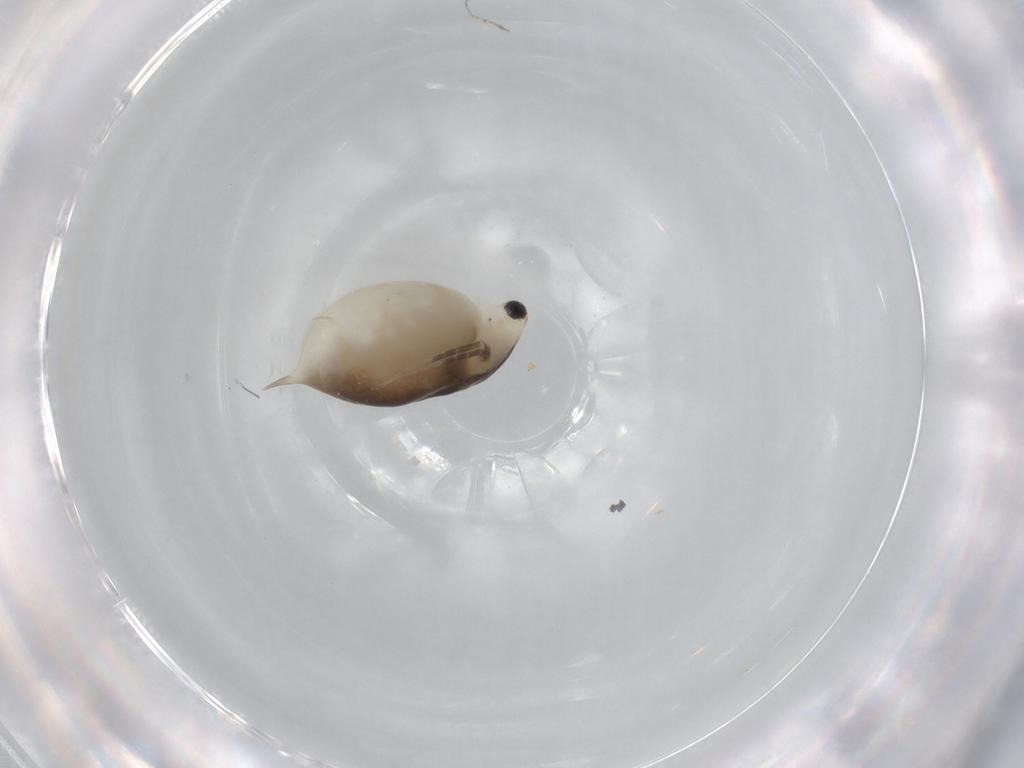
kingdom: Animalia
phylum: Arthropoda
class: Branchiopoda
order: Diplostraca
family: Daphniidae
